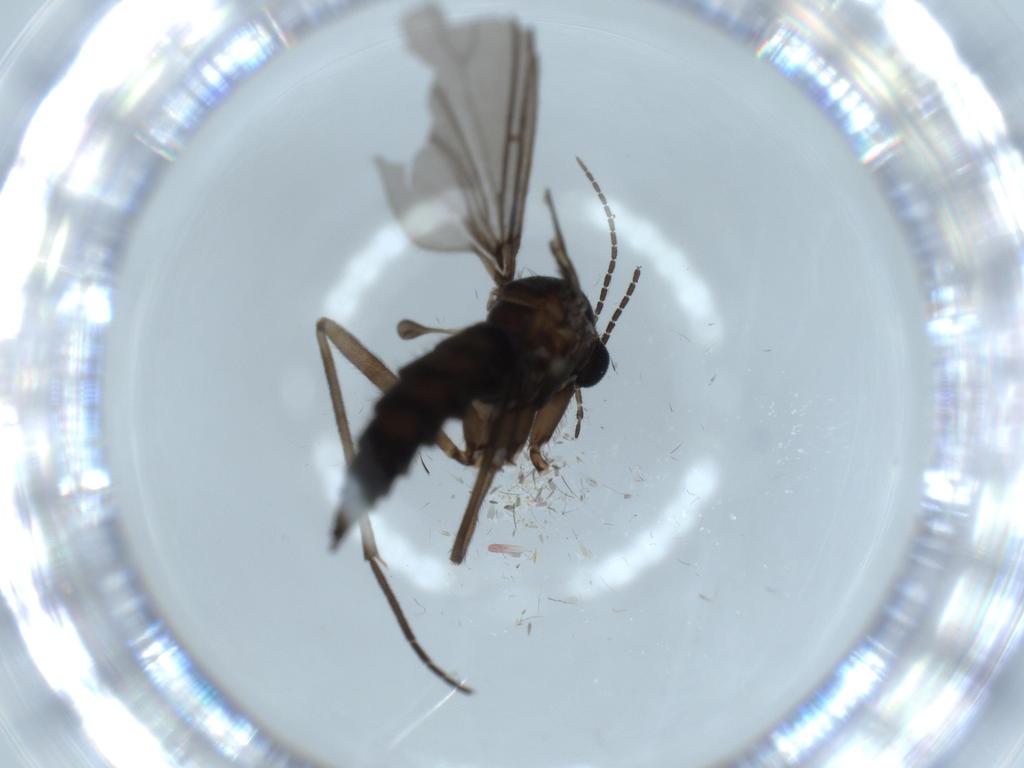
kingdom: Animalia
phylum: Arthropoda
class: Insecta
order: Diptera
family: Sciaridae
